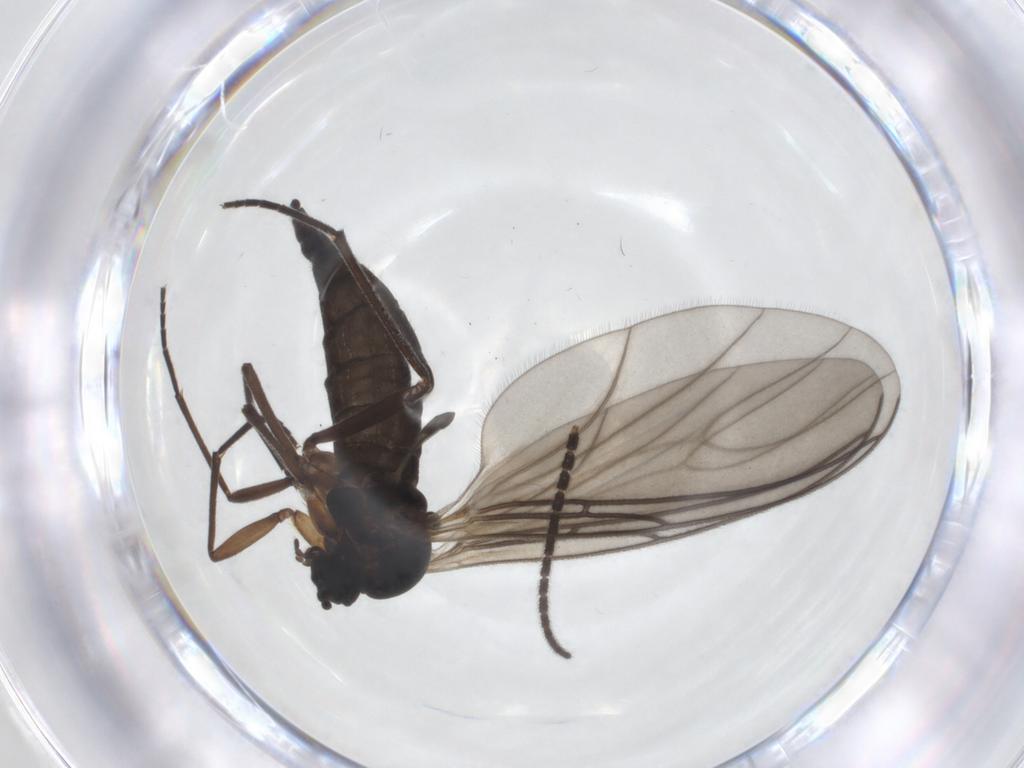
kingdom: Animalia
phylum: Arthropoda
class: Insecta
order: Diptera
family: Sciaridae
